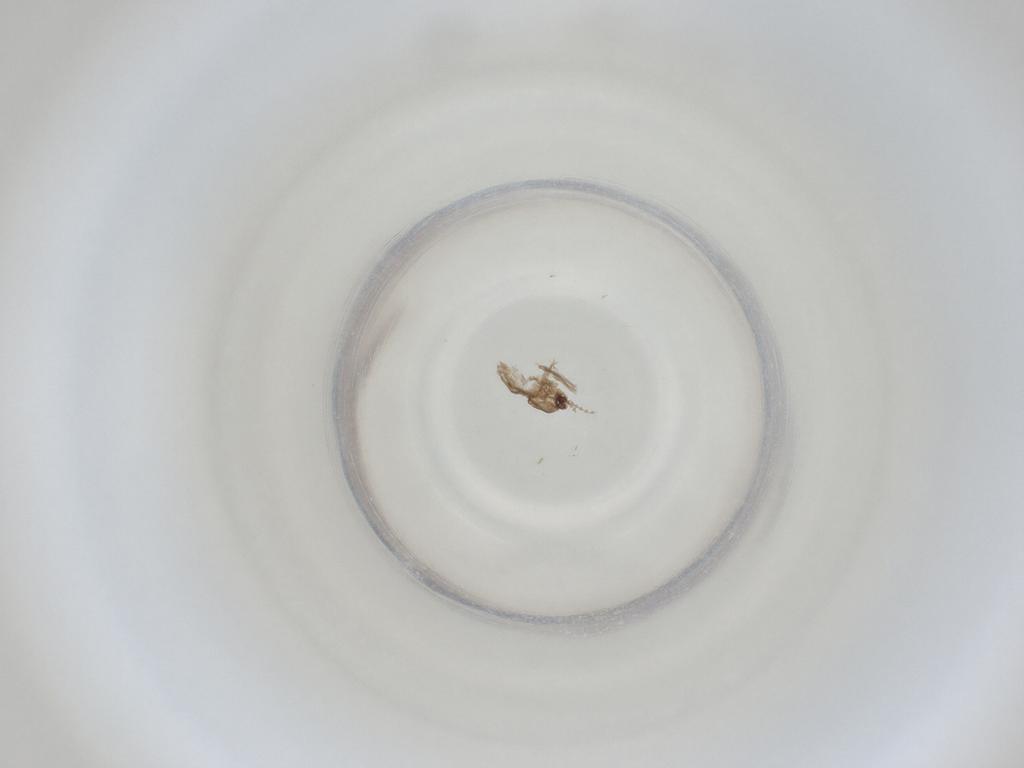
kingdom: Animalia
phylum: Arthropoda
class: Insecta
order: Diptera
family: Cecidomyiidae
